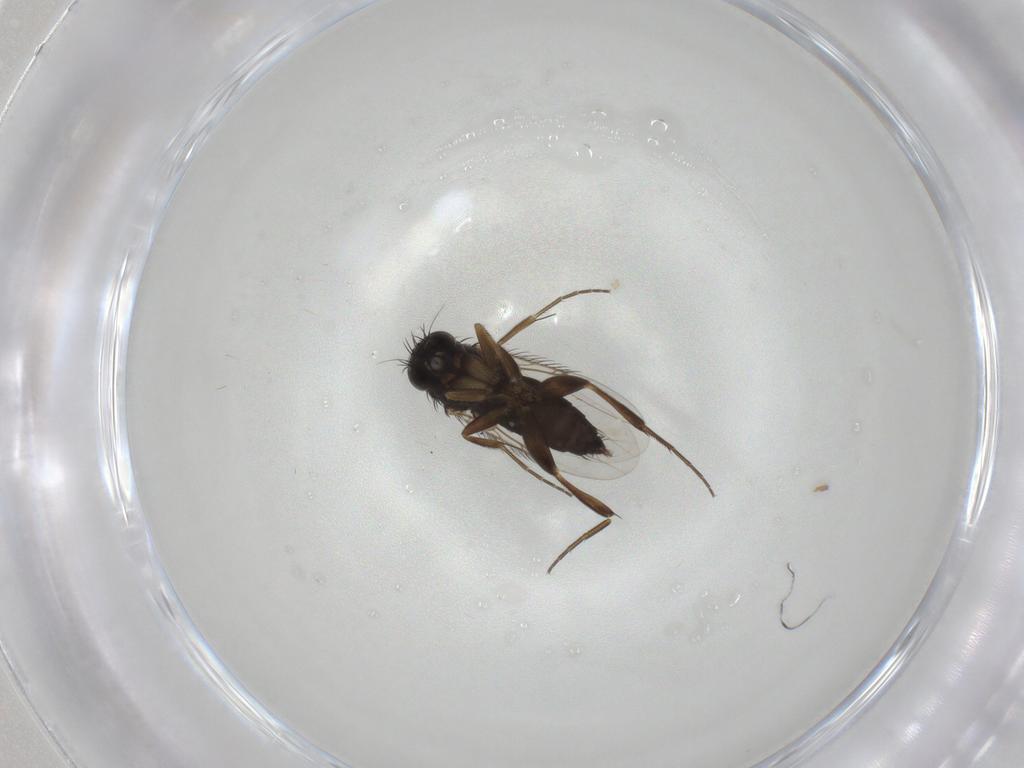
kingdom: Animalia
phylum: Arthropoda
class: Insecta
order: Diptera
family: Phoridae
